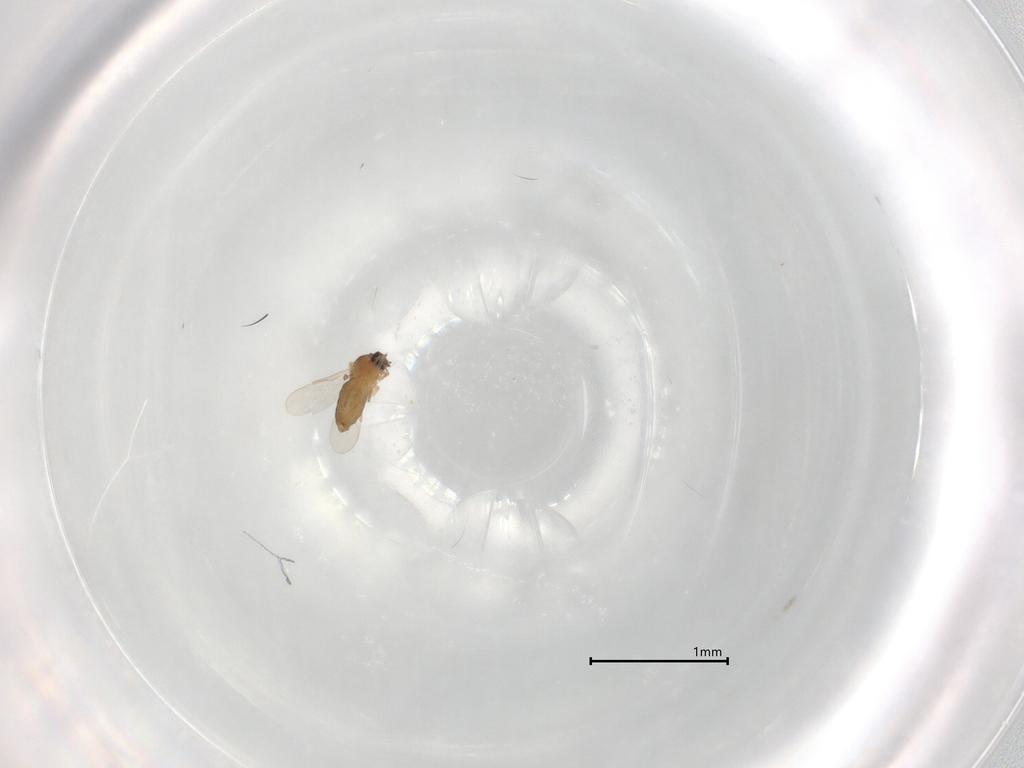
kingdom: Animalia
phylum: Arthropoda
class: Insecta
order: Diptera
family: Ceratopogonidae
